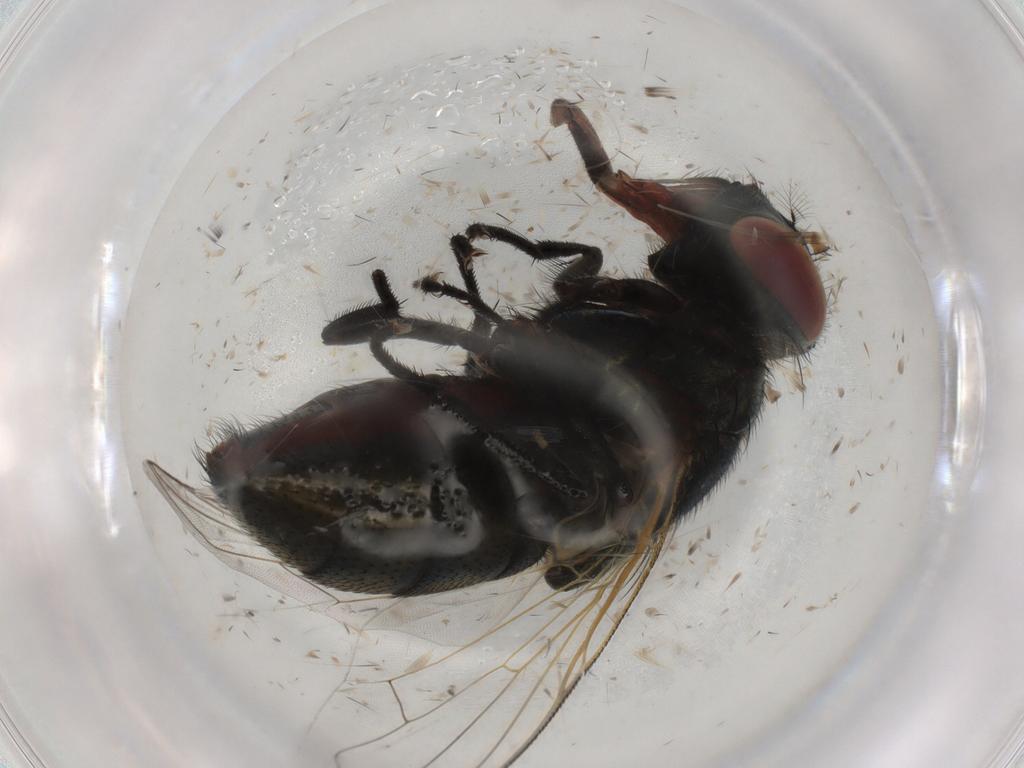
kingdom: Animalia
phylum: Arthropoda
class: Insecta
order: Diptera
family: Muscidae
